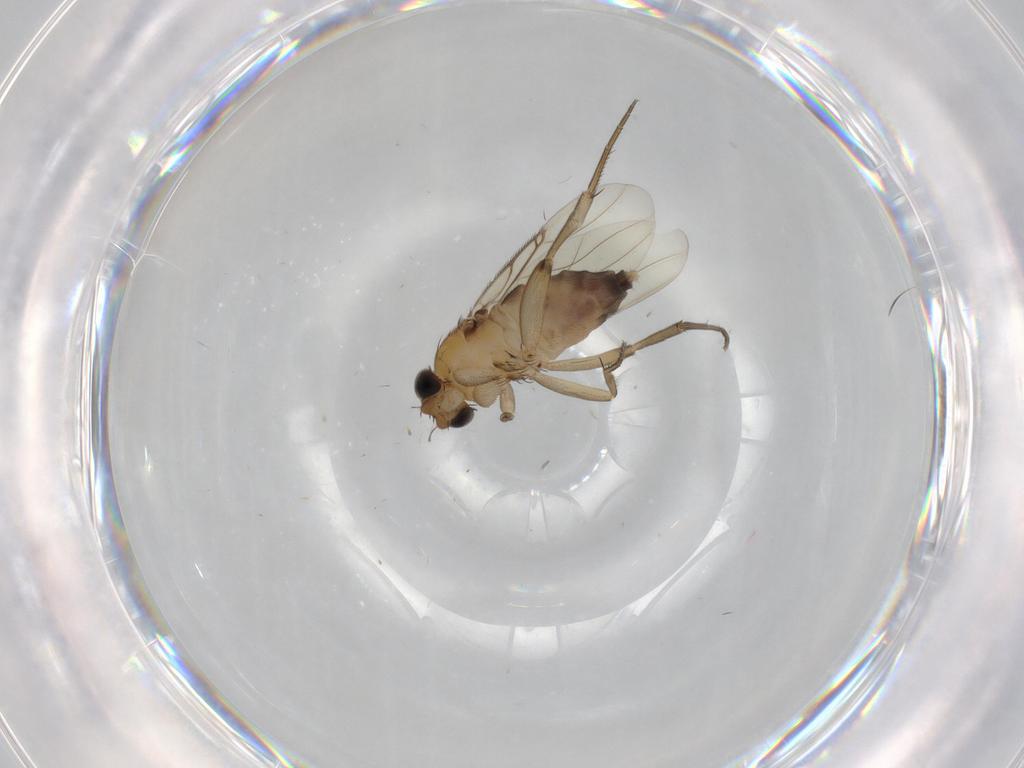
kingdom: Animalia
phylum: Arthropoda
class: Insecta
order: Diptera
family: Phoridae
